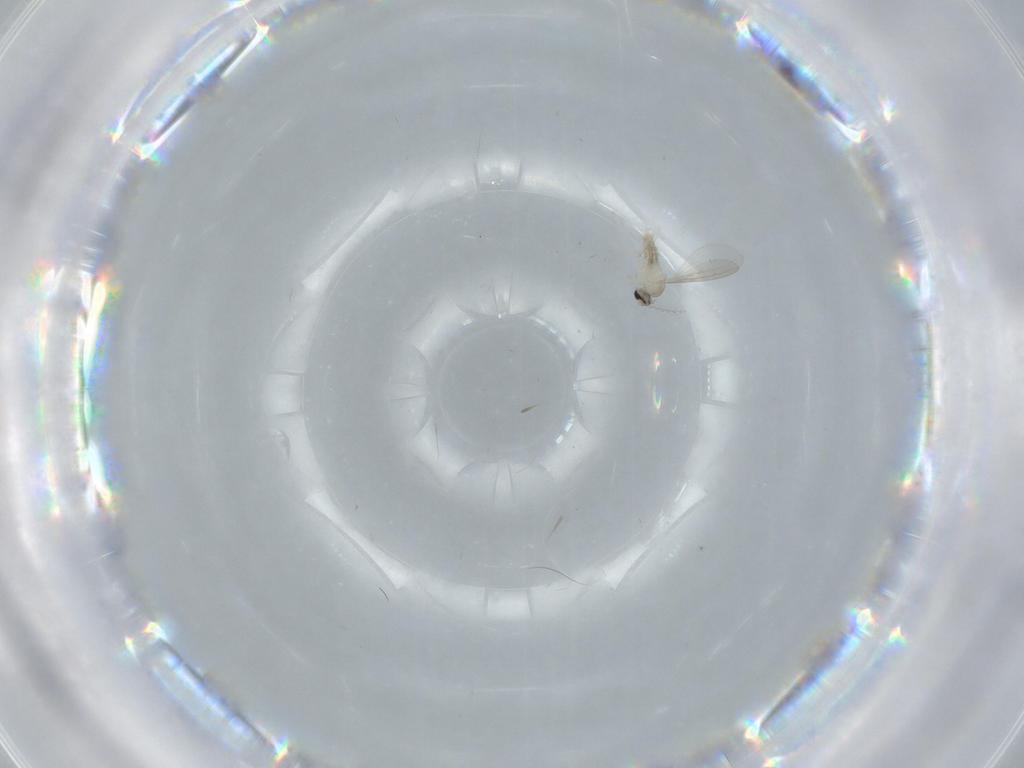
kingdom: Animalia
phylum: Arthropoda
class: Insecta
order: Diptera
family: Cecidomyiidae
